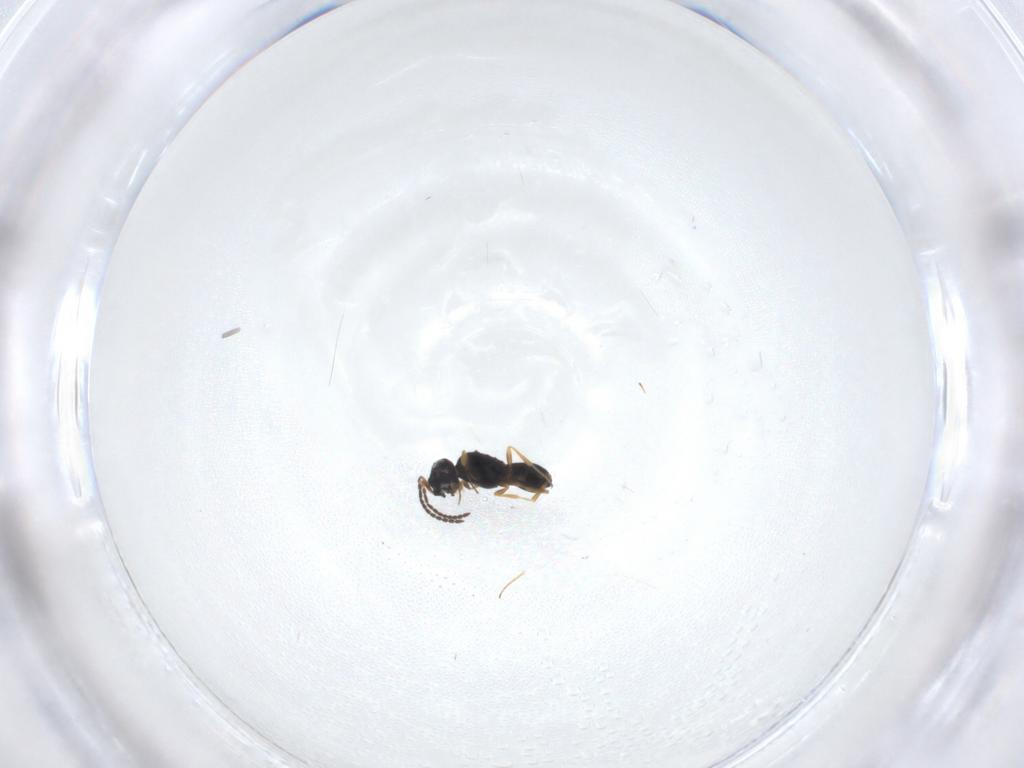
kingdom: Animalia
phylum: Arthropoda
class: Insecta
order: Hymenoptera
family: Scelionidae
